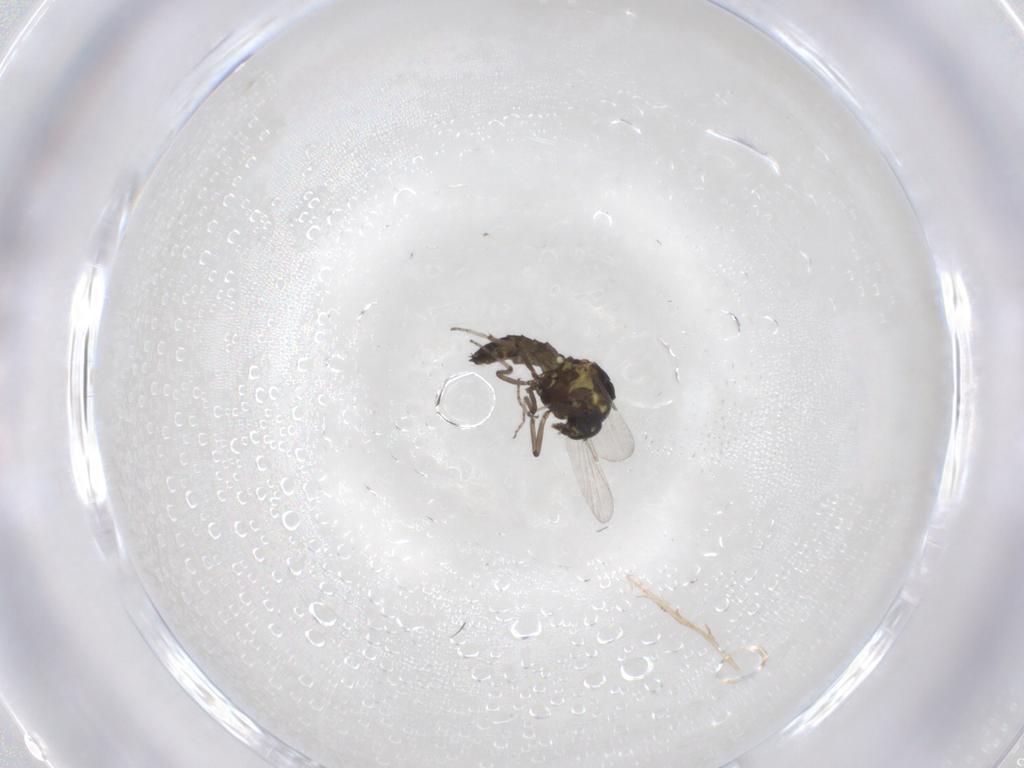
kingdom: Animalia
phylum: Arthropoda
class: Insecta
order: Diptera
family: Ceratopogonidae
